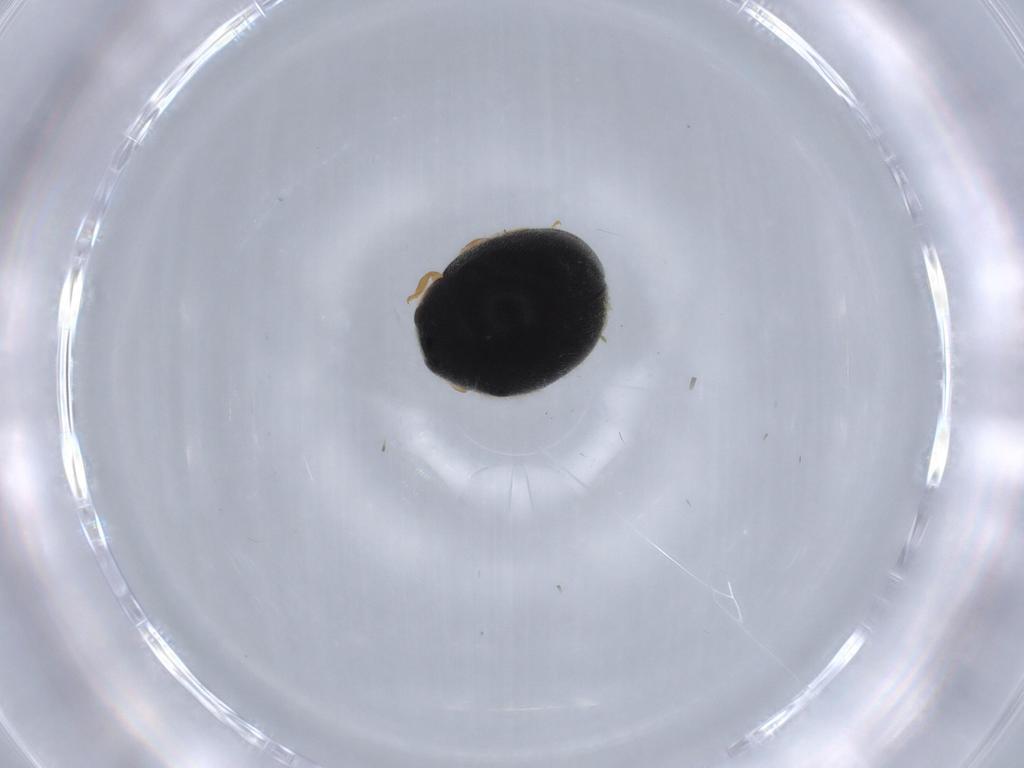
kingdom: Animalia
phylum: Arthropoda
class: Insecta
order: Coleoptera
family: Coccinellidae
